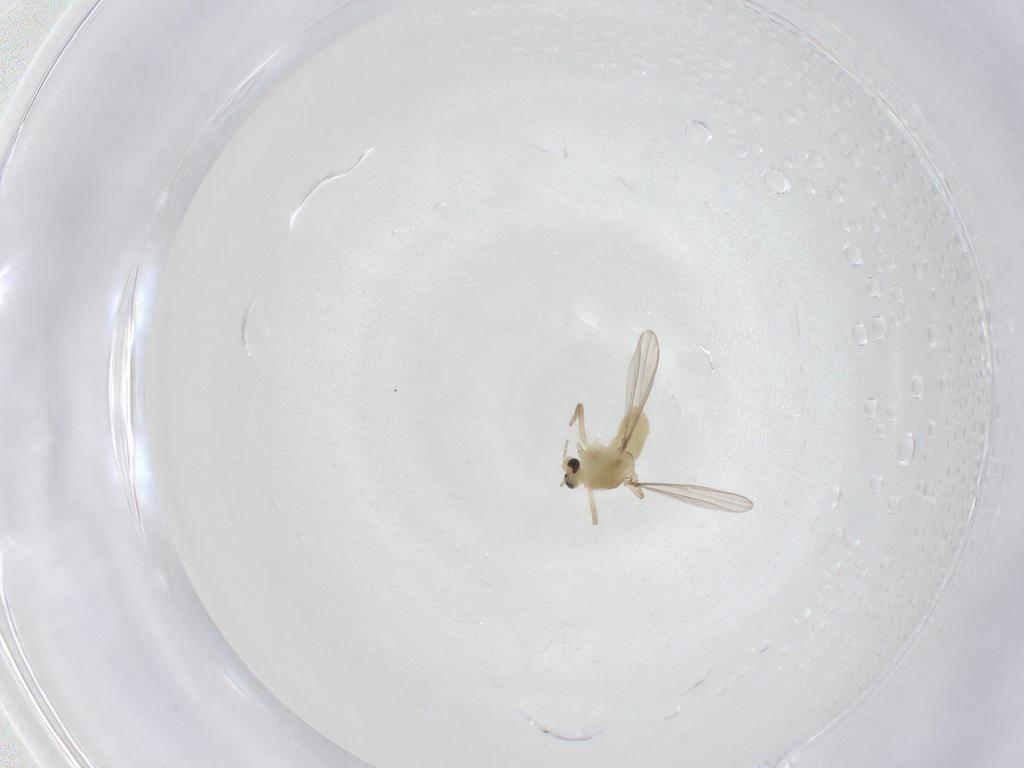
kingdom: Animalia
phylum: Arthropoda
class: Insecta
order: Diptera
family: Chironomidae
